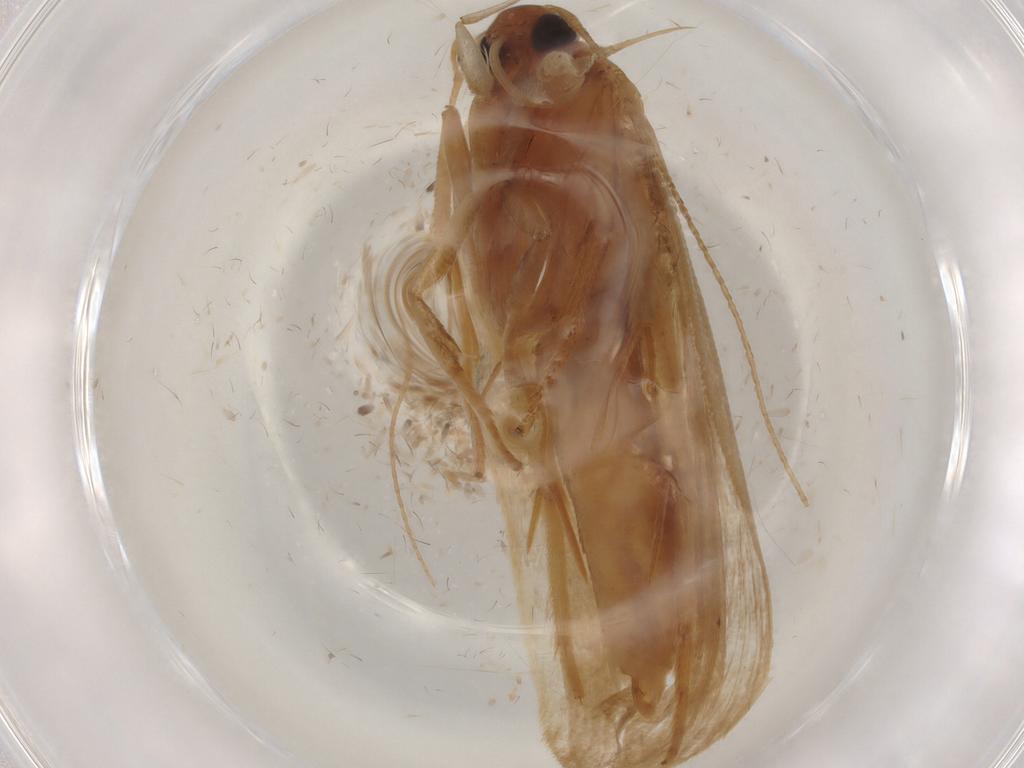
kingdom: Animalia
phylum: Arthropoda
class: Insecta
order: Lepidoptera
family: Gelechiidae
